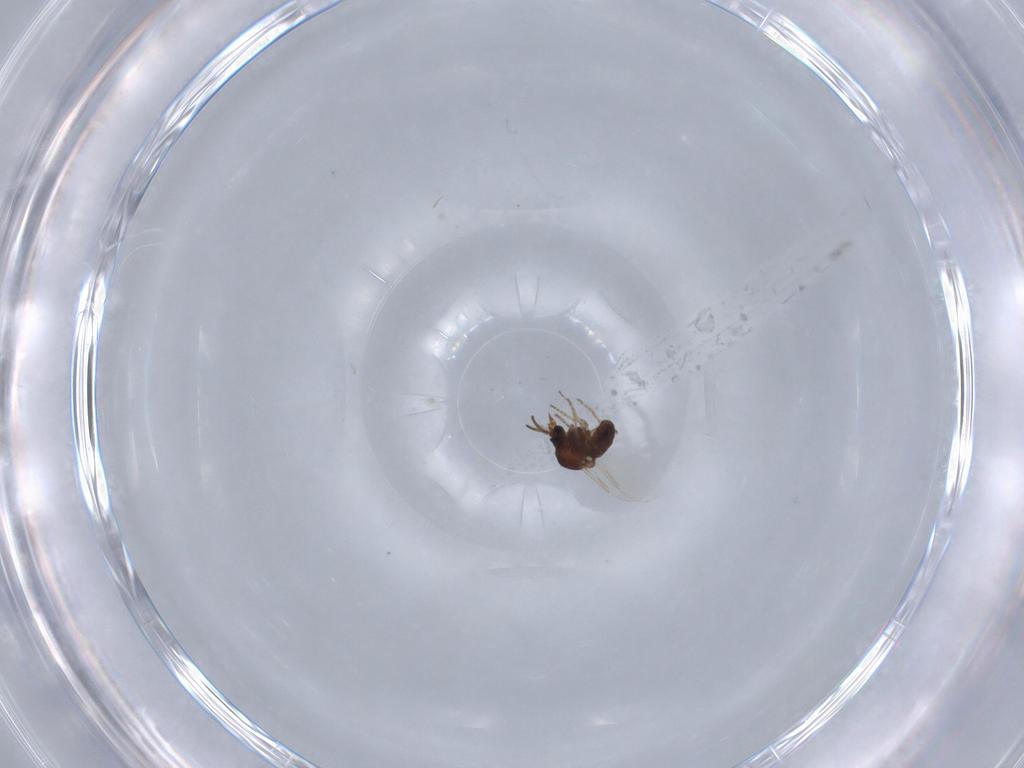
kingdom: Animalia
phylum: Arthropoda
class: Insecta
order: Diptera
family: Ceratopogonidae
